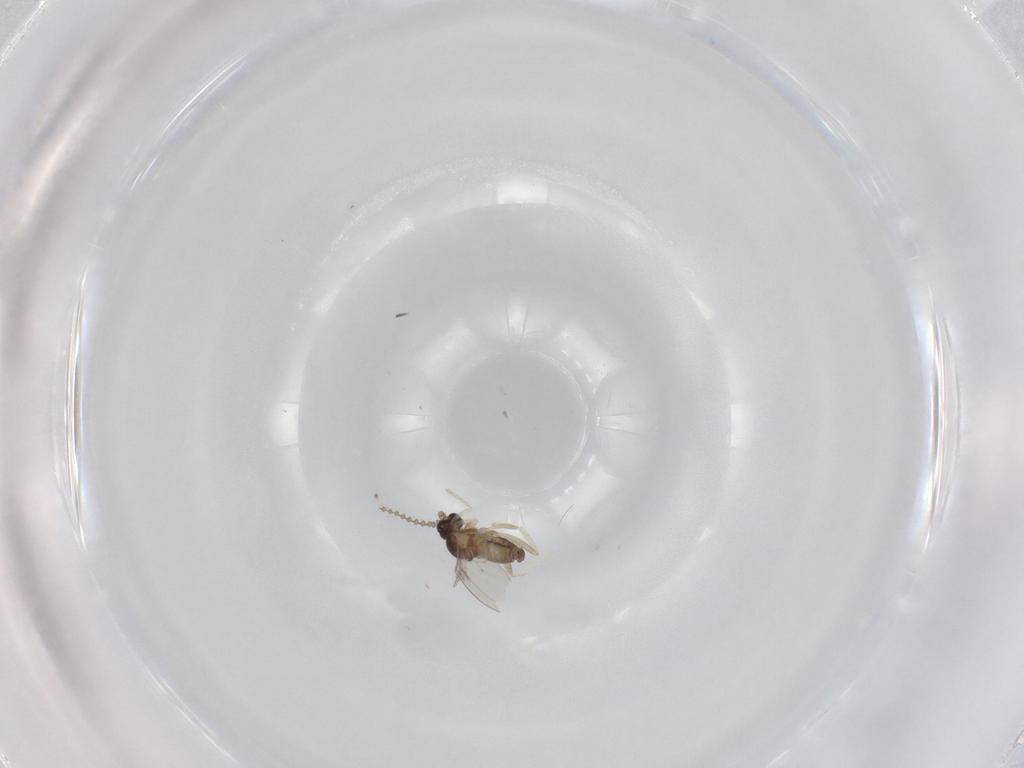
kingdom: Animalia
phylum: Arthropoda
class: Insecta
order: Diptera
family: Cecidomyiidae
